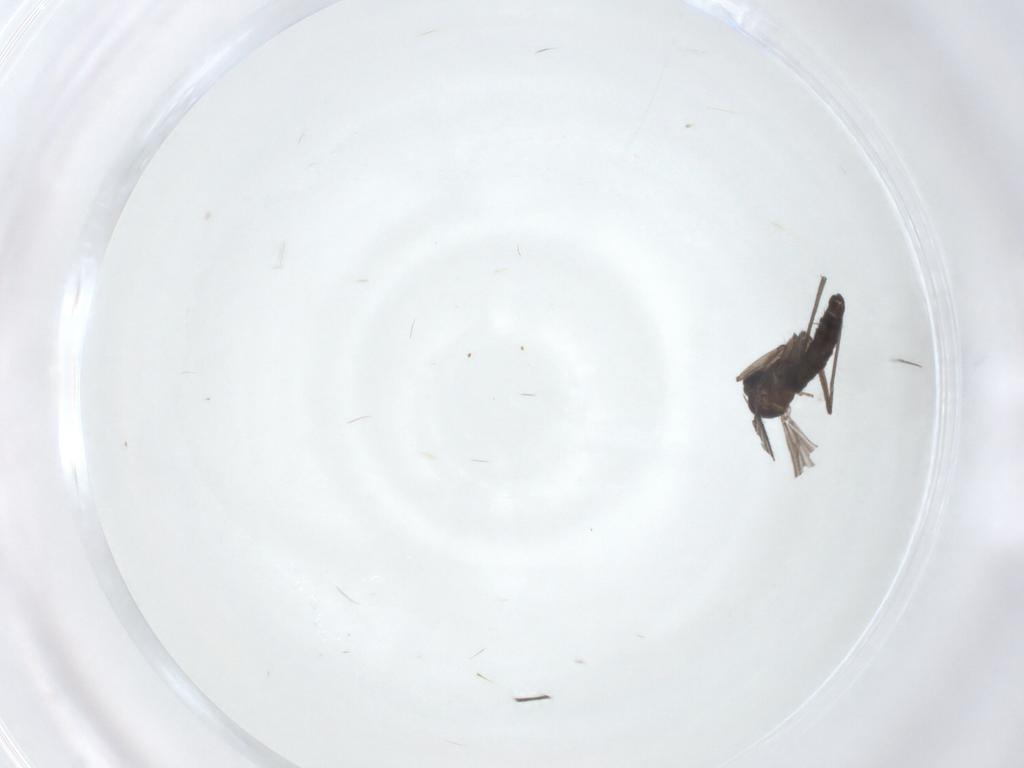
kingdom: Animalia
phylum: Arthropoda
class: Insecta
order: Diptera
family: Sciaridae
